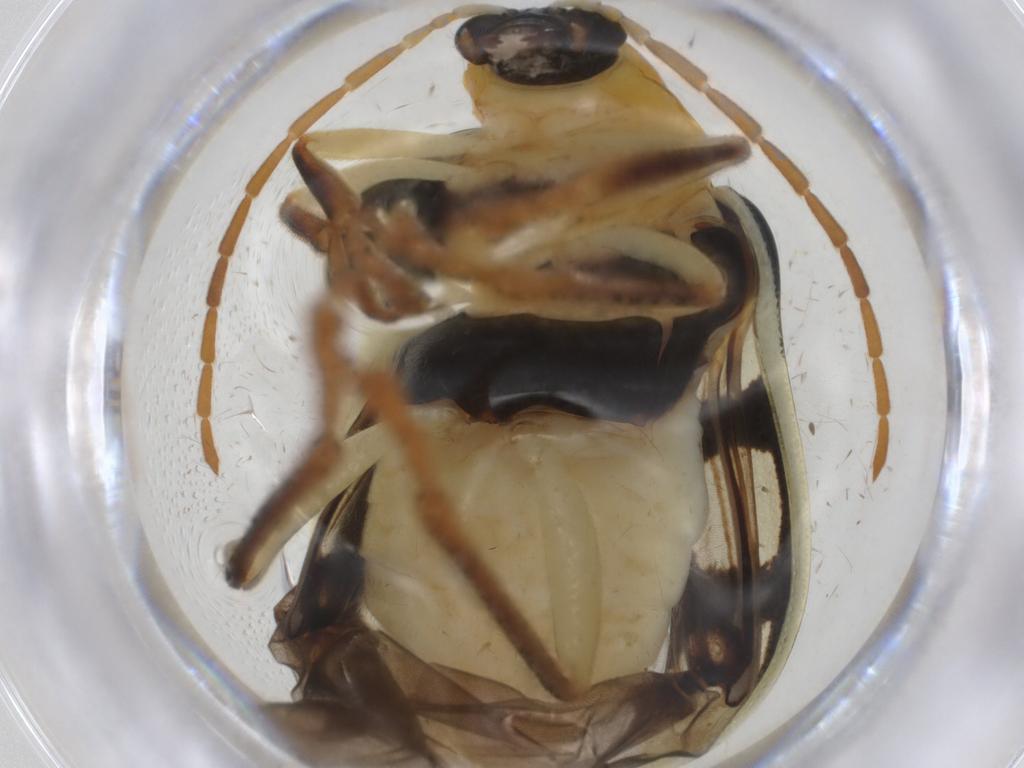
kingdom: Animalia
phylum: Arthropoda
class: Insecta
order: Coleoptera
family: Chrysomelidae
